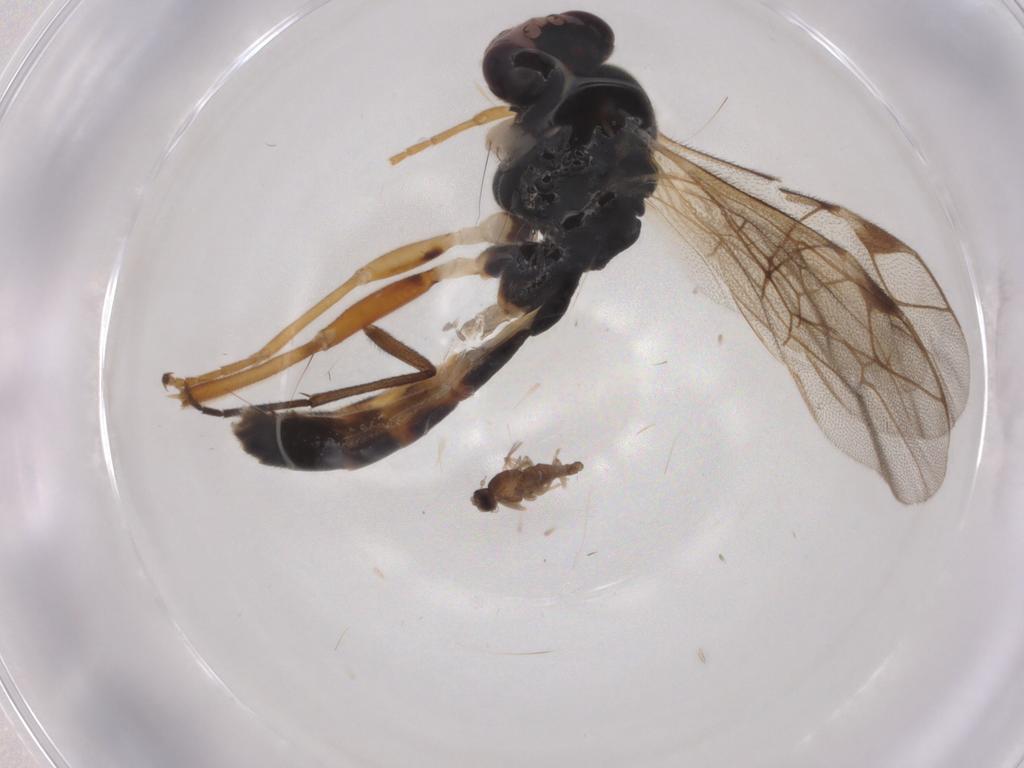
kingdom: Animalia
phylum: Arthropoda
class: Insecta
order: Hymenoptera
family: Ichneumonidae
